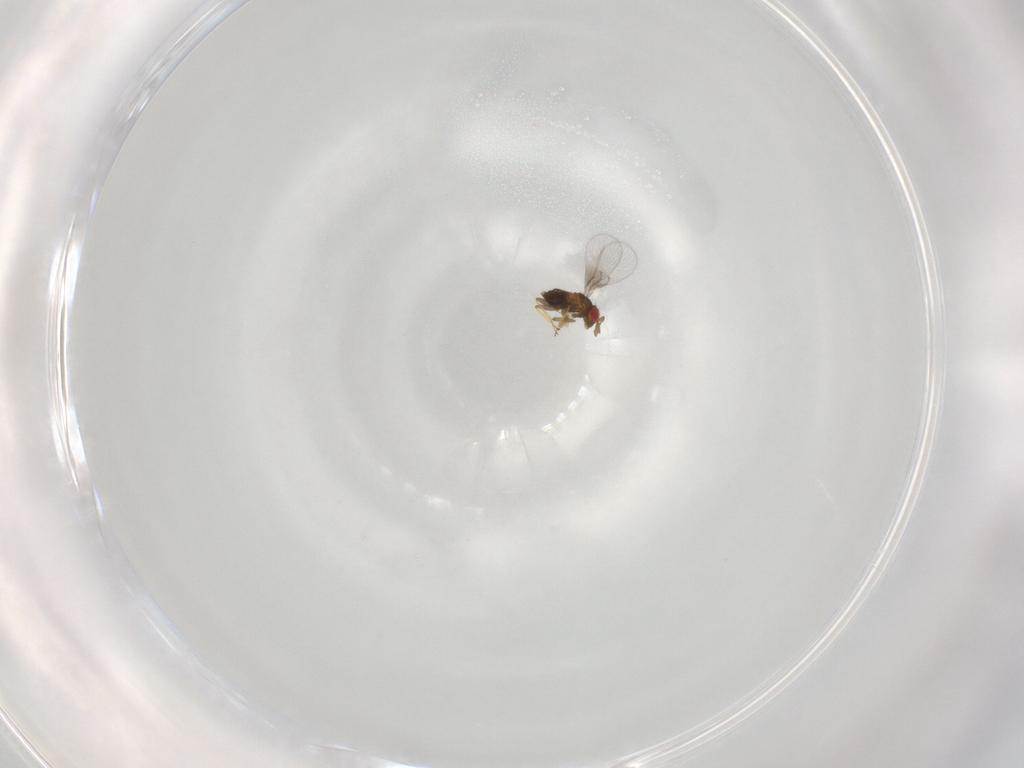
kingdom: Animalia
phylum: Arthropoda
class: Insecta
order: Hymenoptera
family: Trichogrammatidae
